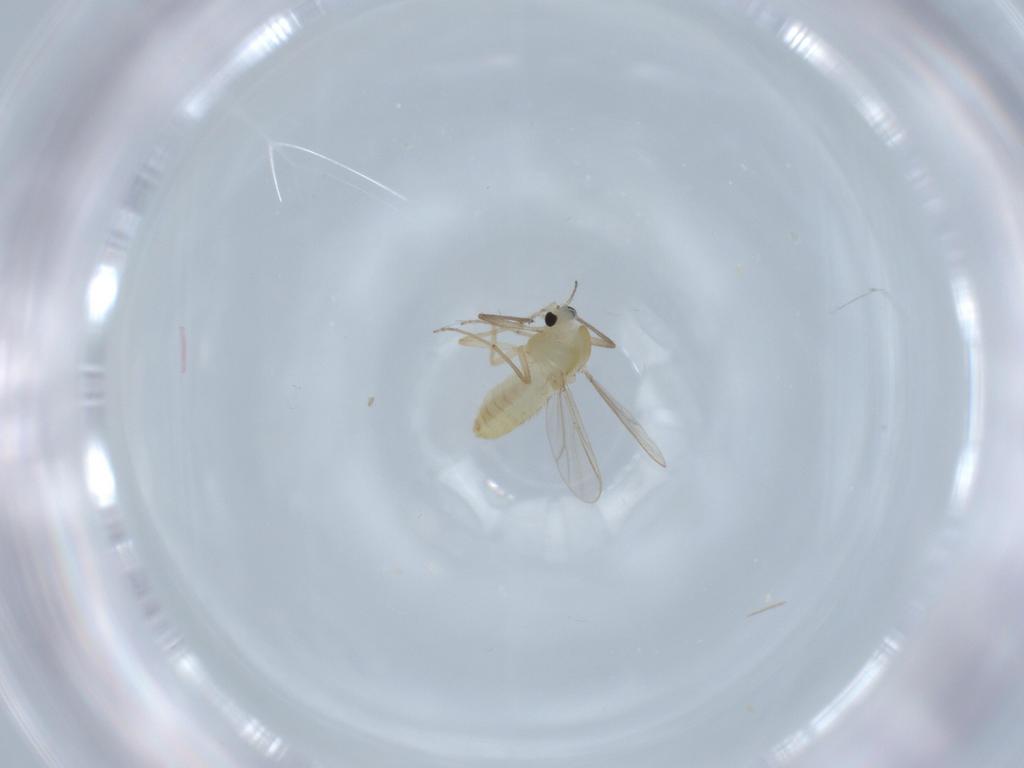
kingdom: Animalia
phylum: Arthropoda
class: Insecta
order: Diptera
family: Chironomidae
